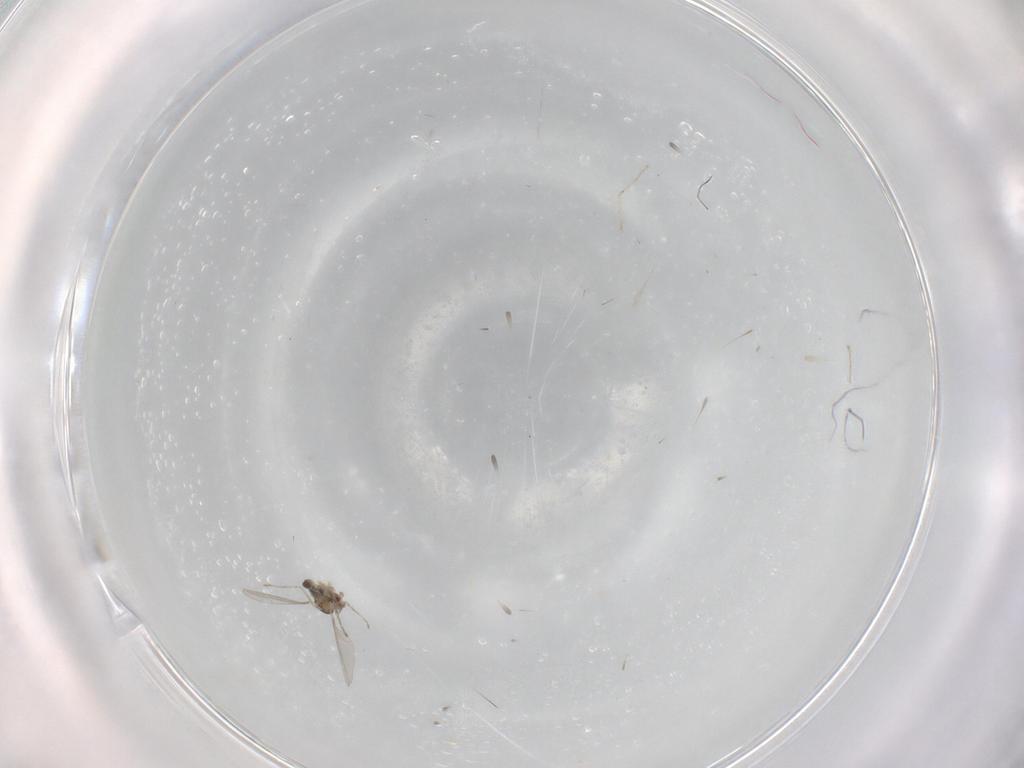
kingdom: Animalia
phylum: Arthropoda
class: Insecta
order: Diptera
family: Cecidomyiidae
